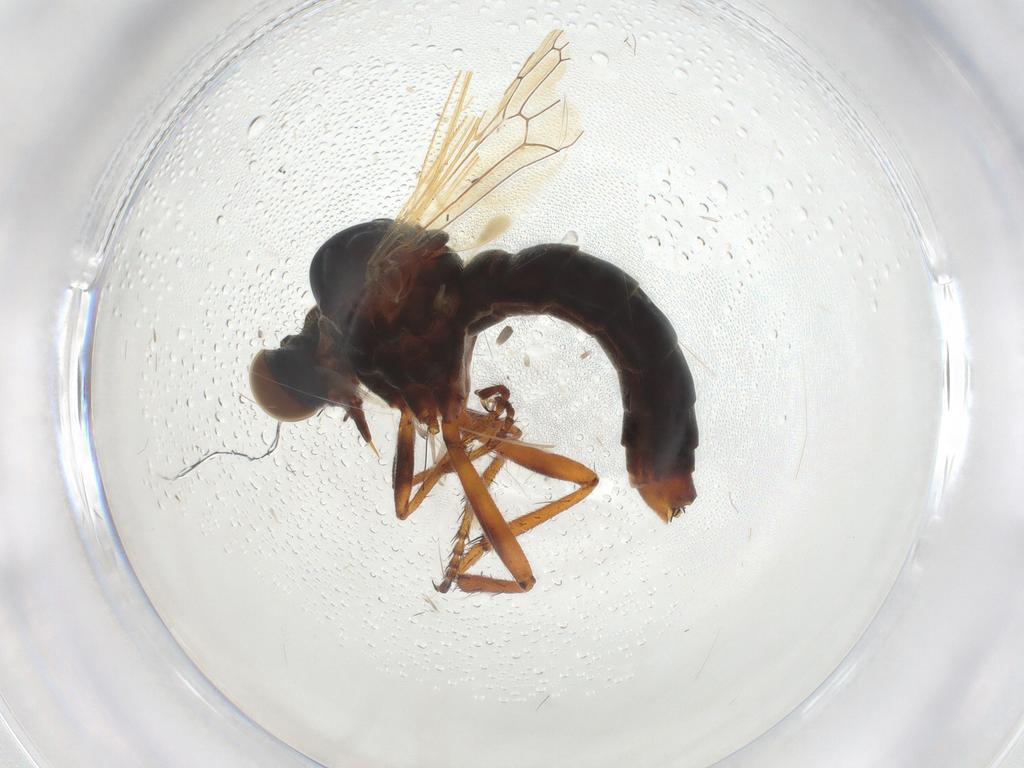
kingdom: Animalia
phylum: Arthropoda
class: Insecta
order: Diptera
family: Asilidae
